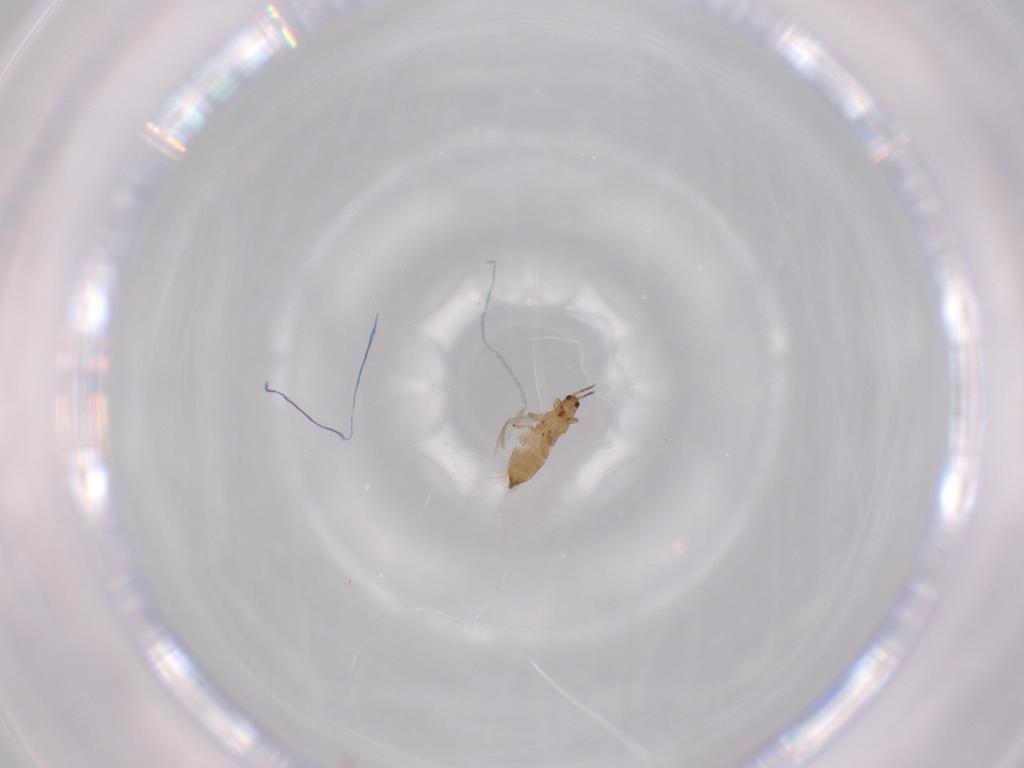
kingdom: Animalia
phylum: Arthropoda
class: Insecta
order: Thysanoptera
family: Thripidae
